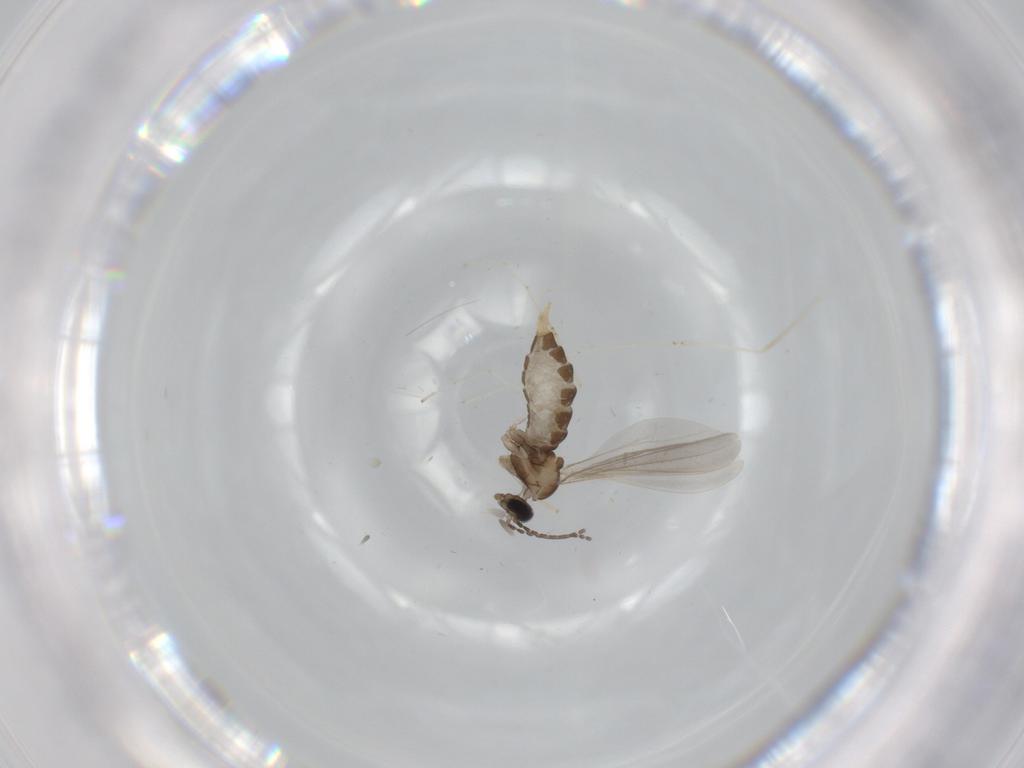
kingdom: Animalia
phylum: Arthropoda
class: Insecta
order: Diptera
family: Cecidomyiidae
